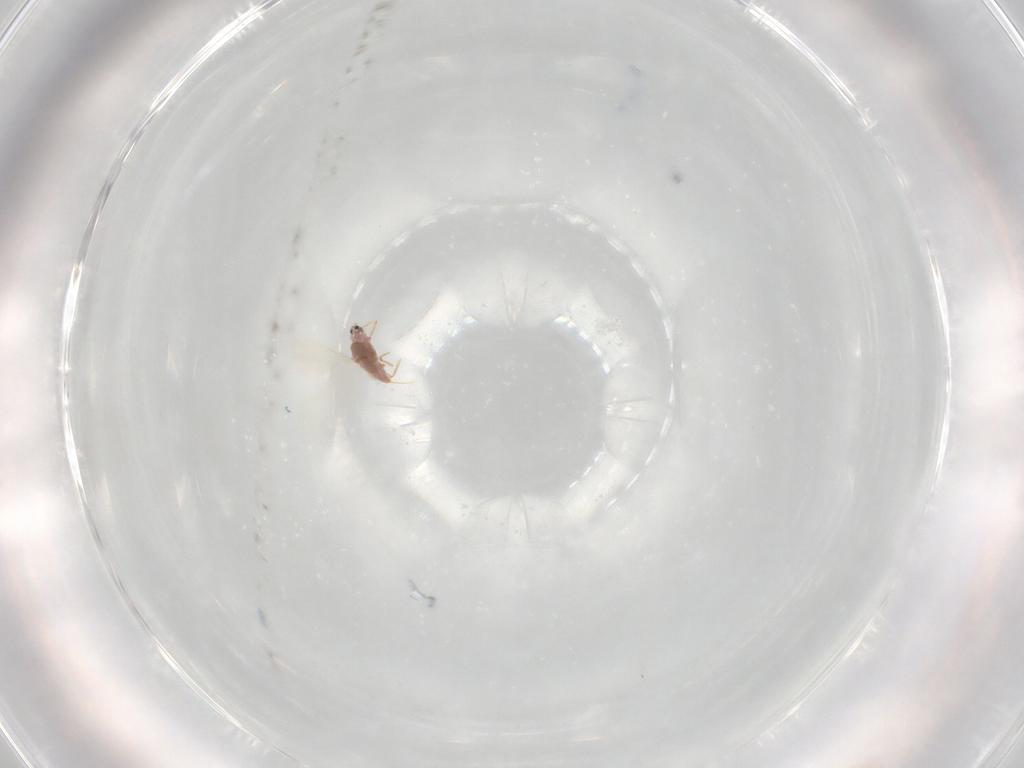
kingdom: Animalia
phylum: Arthropoda
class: Insecta
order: Hemiptera
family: Diaspididae
